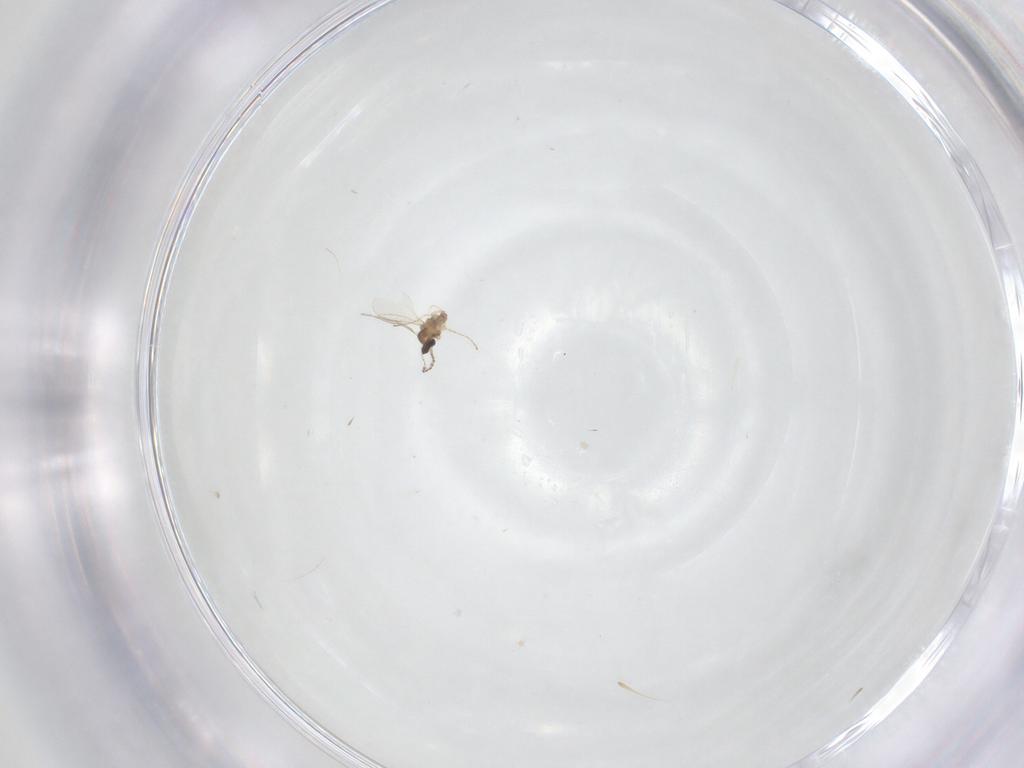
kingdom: Animalia
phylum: Arthropoda
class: Insecta
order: Diptera
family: Cecidomyiidae
